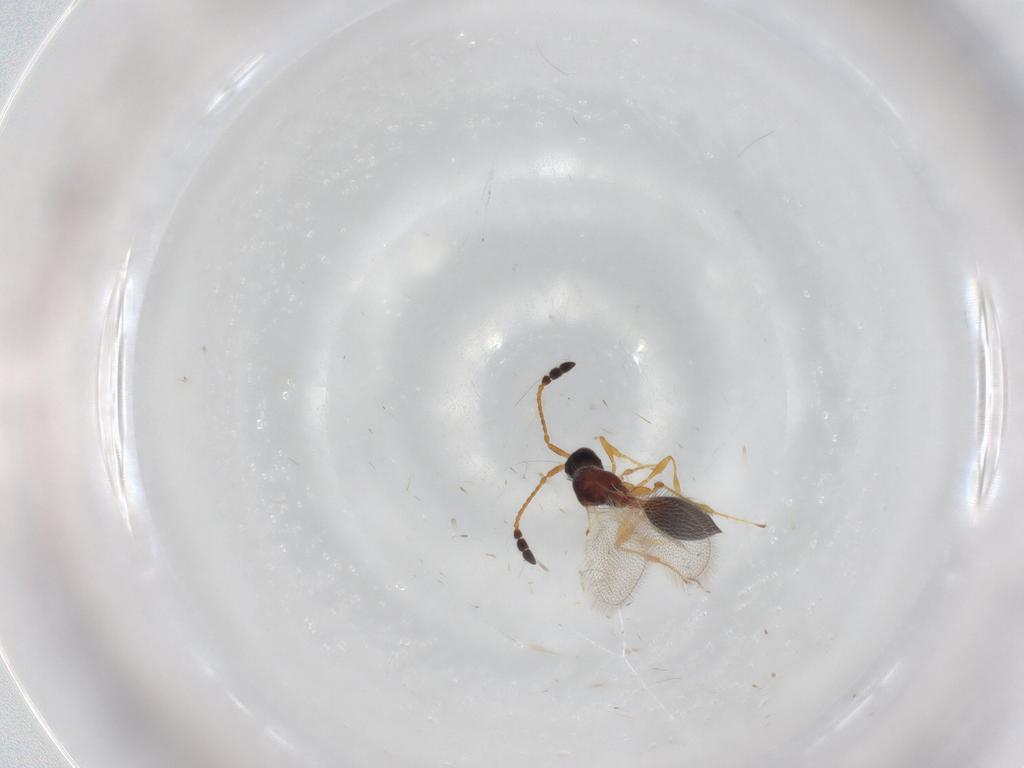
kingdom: Animalia
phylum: Arthropoda
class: Insecta
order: Hymenoptera
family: Diapriidae
